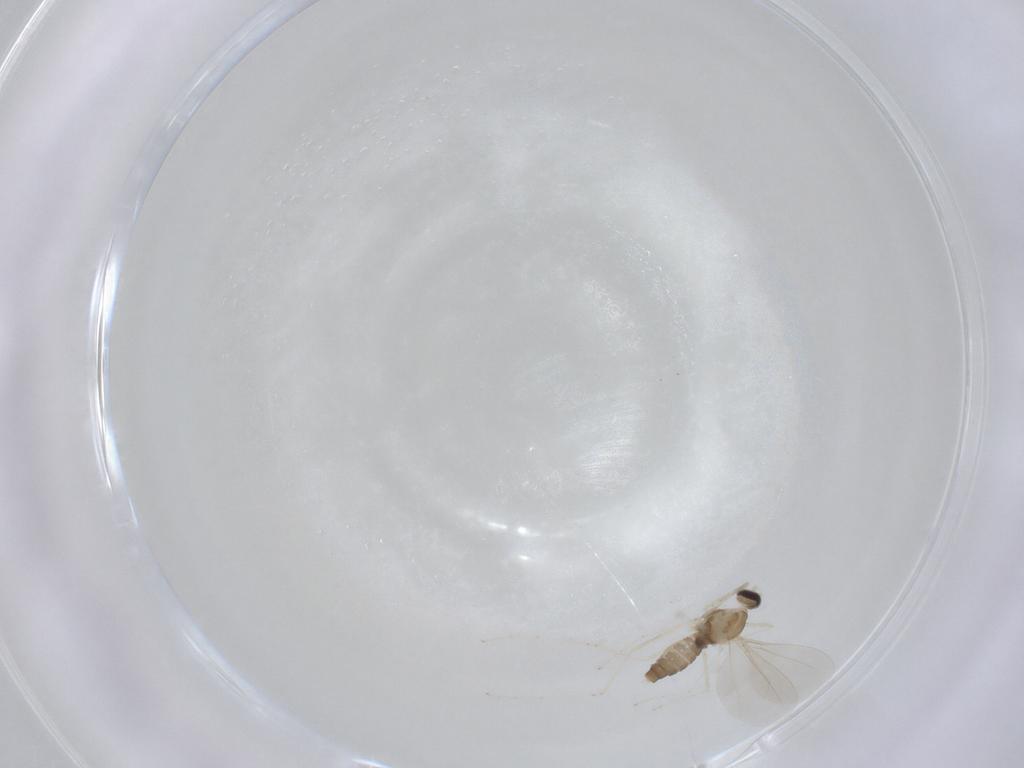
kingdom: Animalia
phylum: Arthropoda
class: Insecta
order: Diptera
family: Cecidomyiidae
